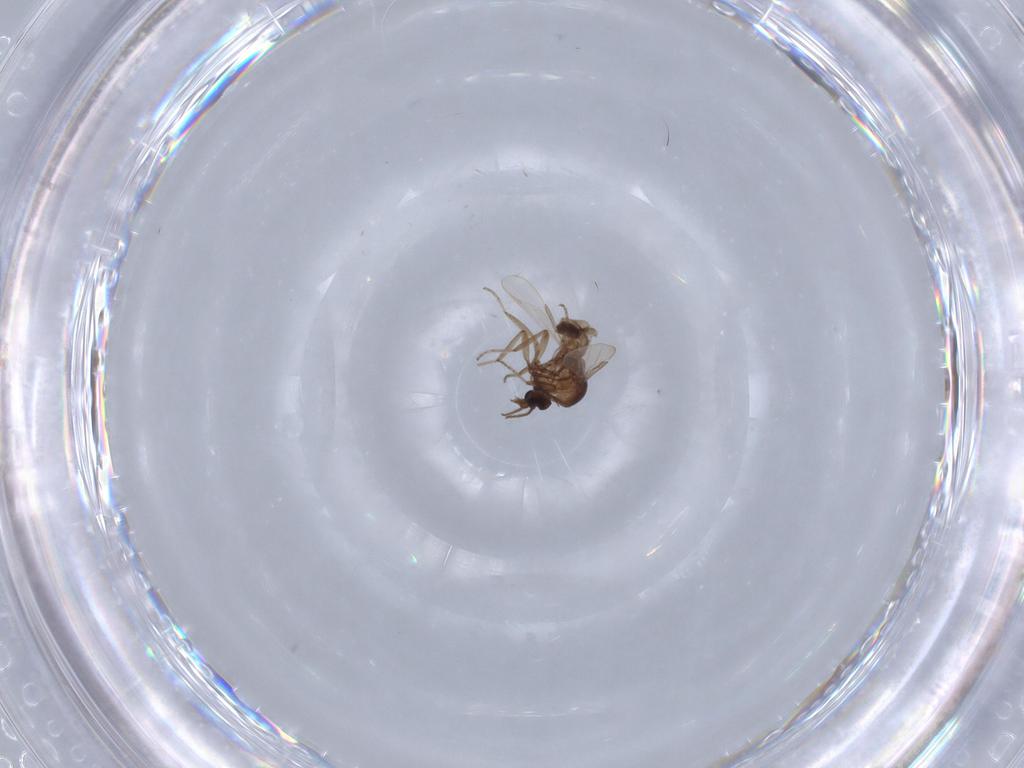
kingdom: Animalia
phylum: Arthropoda
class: Insecta
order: Diptera
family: Ceratopogonidae
